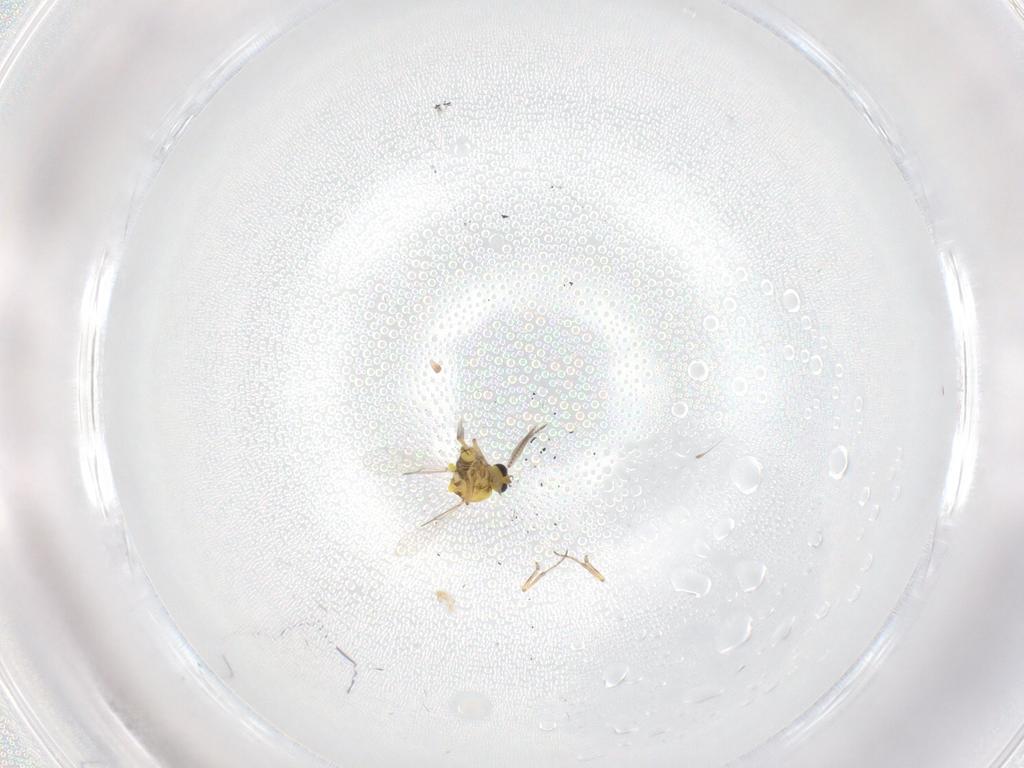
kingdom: Animalia
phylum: Arthropoda
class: Insecta
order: Diptera
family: Ceratopogonidae
